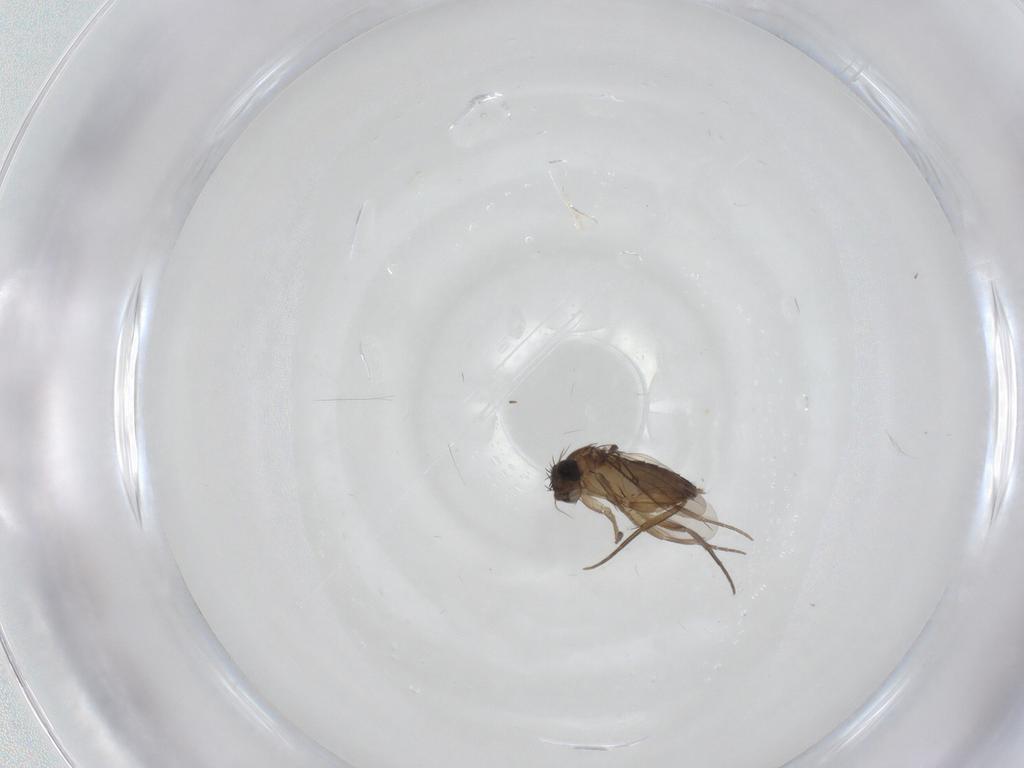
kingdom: Animalia
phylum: Arthropoda
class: Insecta
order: Diptera
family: Phoridae
